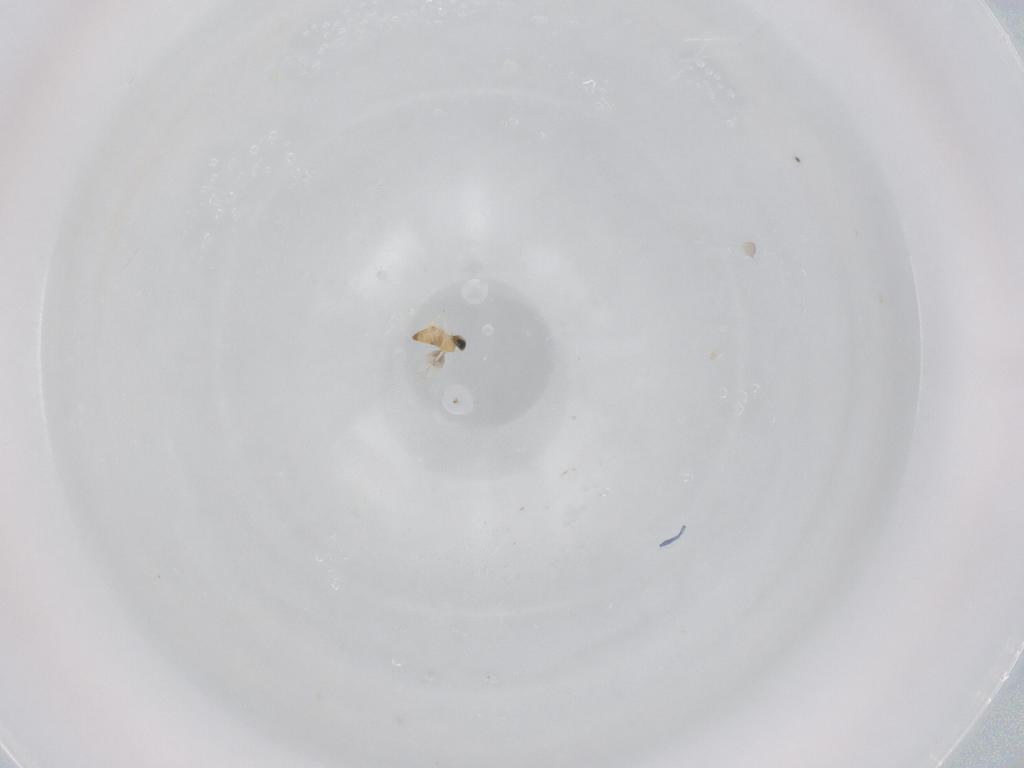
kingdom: Animalia
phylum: Arthropoda
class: Insecta
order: Hymenoptera
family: Trichogrammatidae
